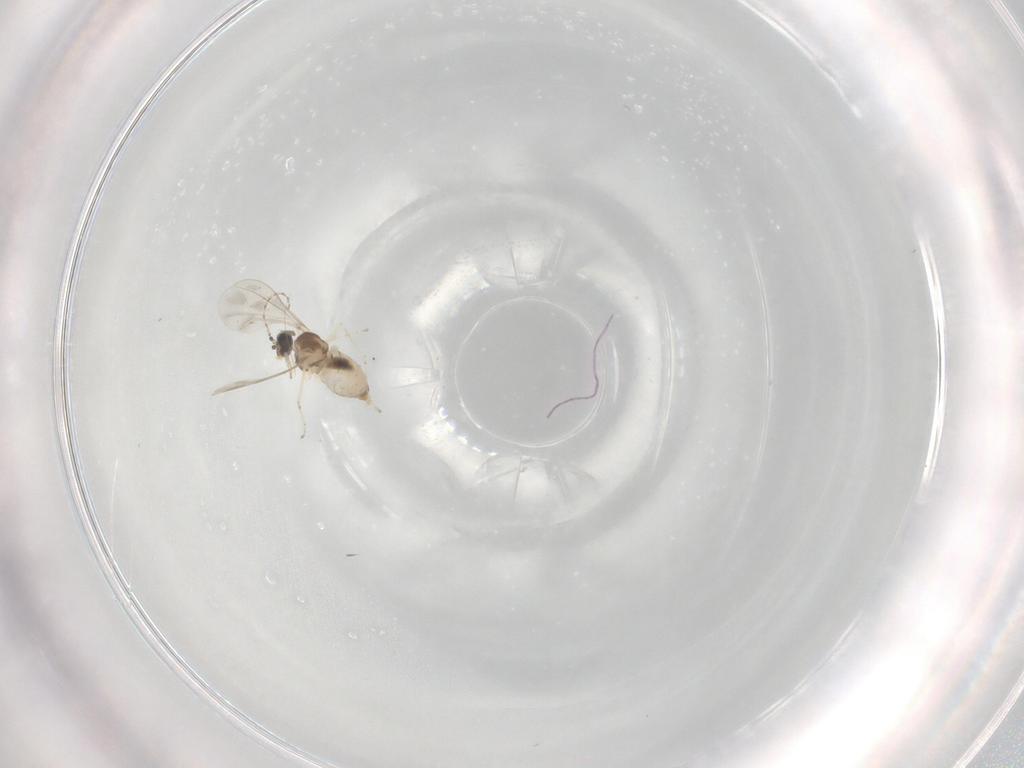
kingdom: Animalia
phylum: Arthropoda
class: Insecta
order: Diptera
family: Cecidomyiidae
